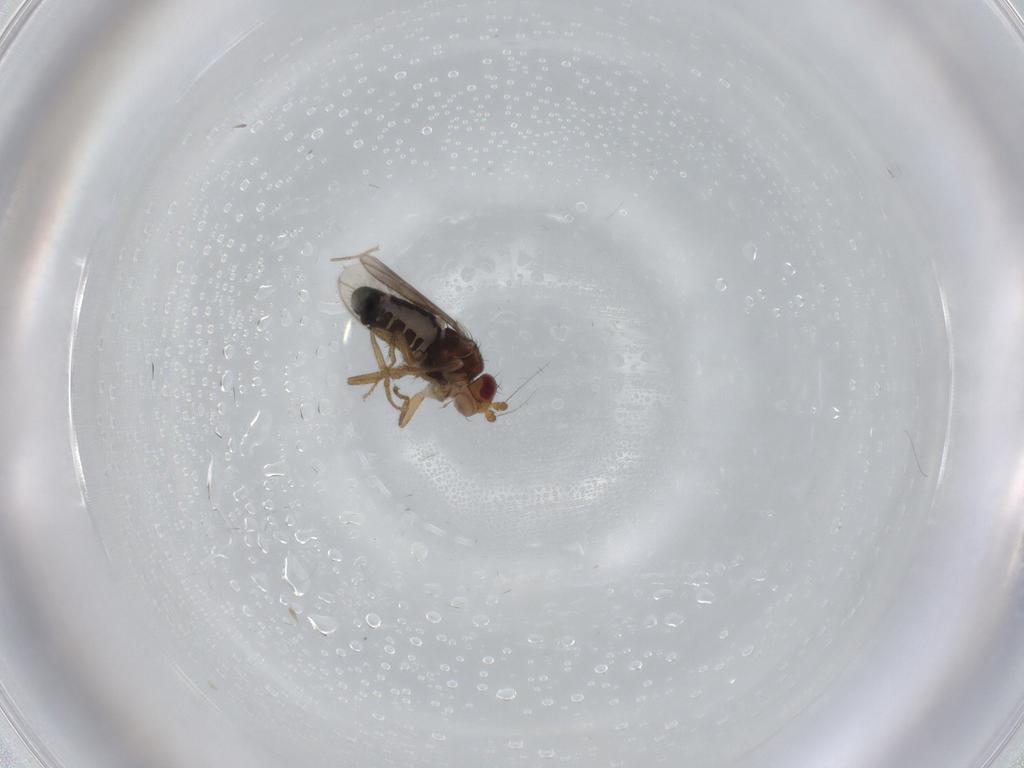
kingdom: Animalia
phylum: Arthropoda
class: Insecta
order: Diptera
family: Sphaeroceridae
